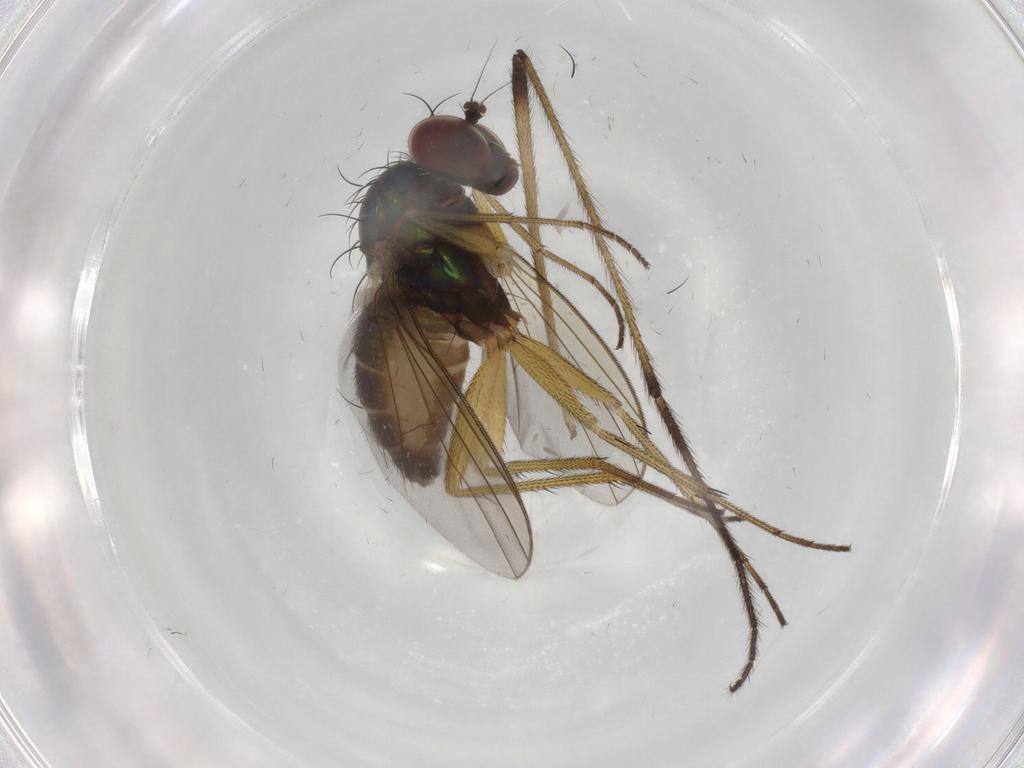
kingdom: Animalia
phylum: Arthropoda
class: Insecta
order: Diptera
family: Dolichopodidae
